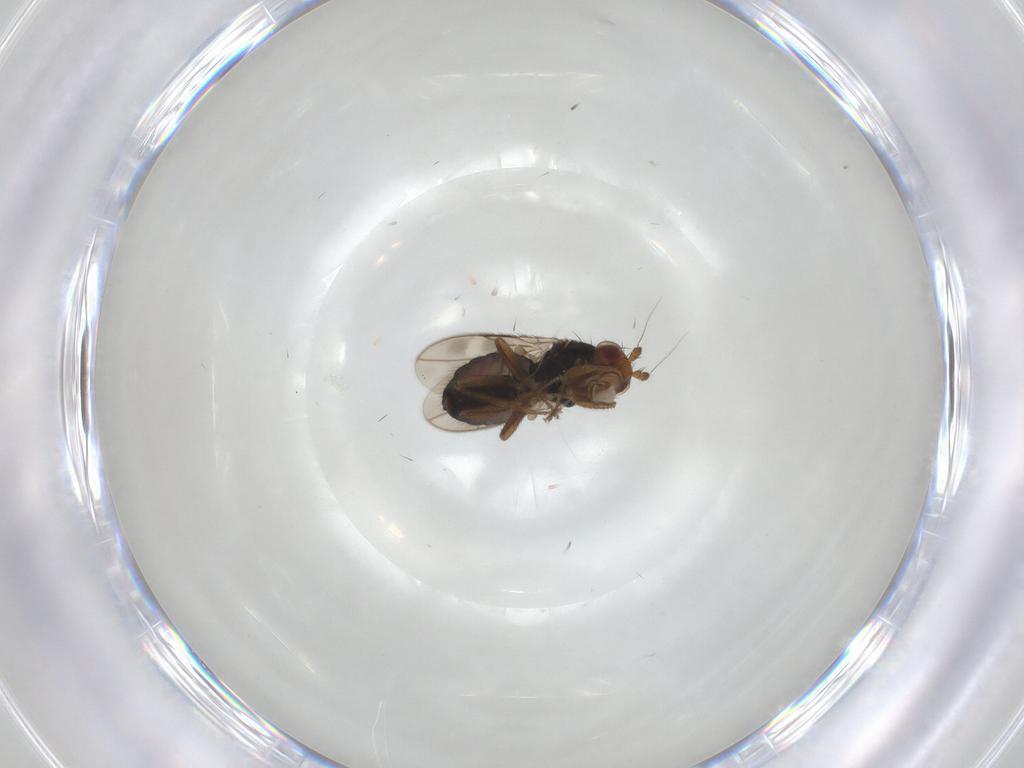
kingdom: Animalia
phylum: Arthropoda
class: Insecta
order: Diptera
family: Sphaeroceridae
